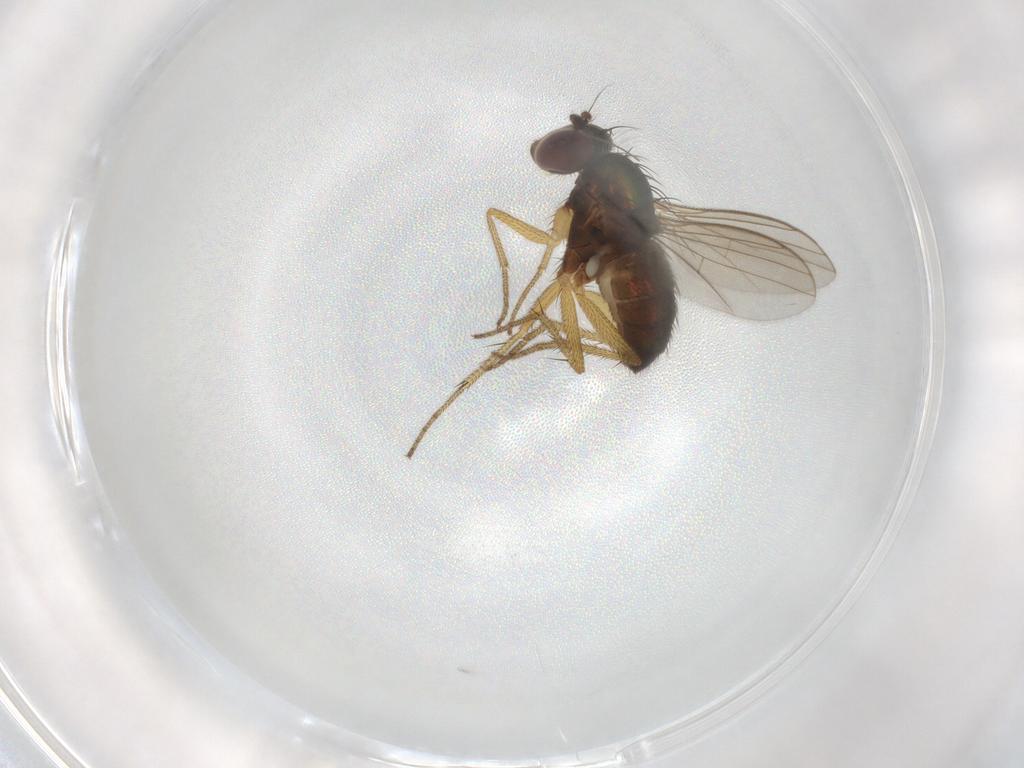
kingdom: Animalia
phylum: Arthropoda
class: Insecta
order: Diptera
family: Chironomidae
